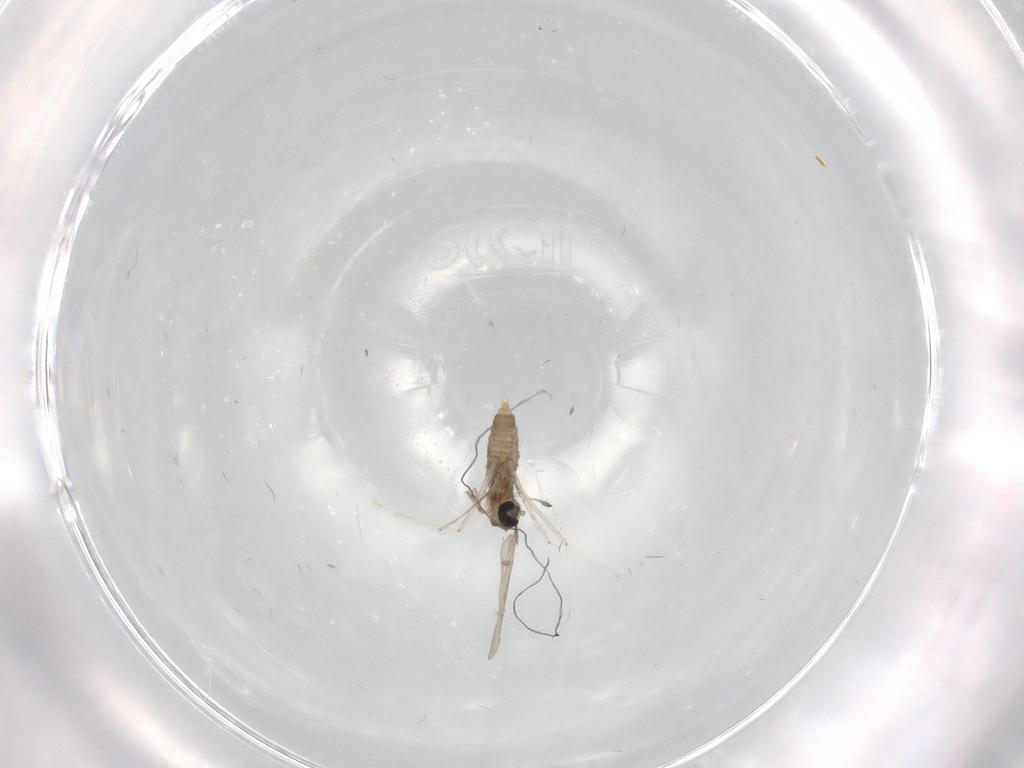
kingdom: Animalia
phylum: Arthropoda
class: Insecta
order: Diptera
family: Cecidomyiidae
